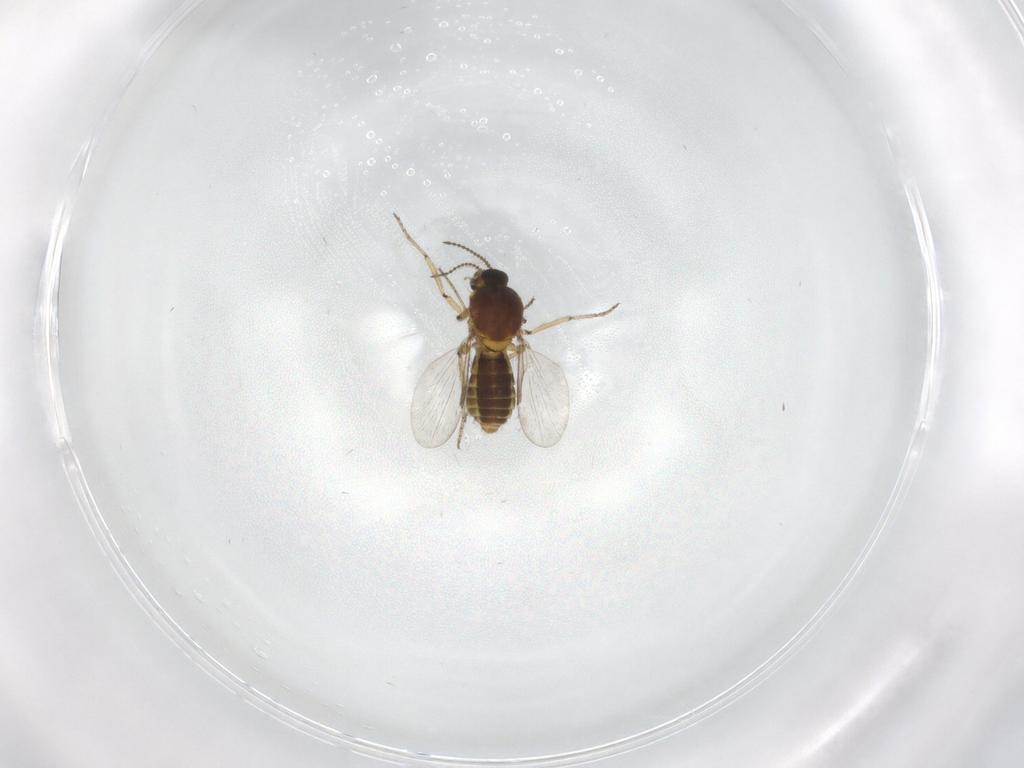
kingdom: Animalia
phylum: Arthropoda
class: Insecta
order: Diptera
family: Ceratopogonidae
